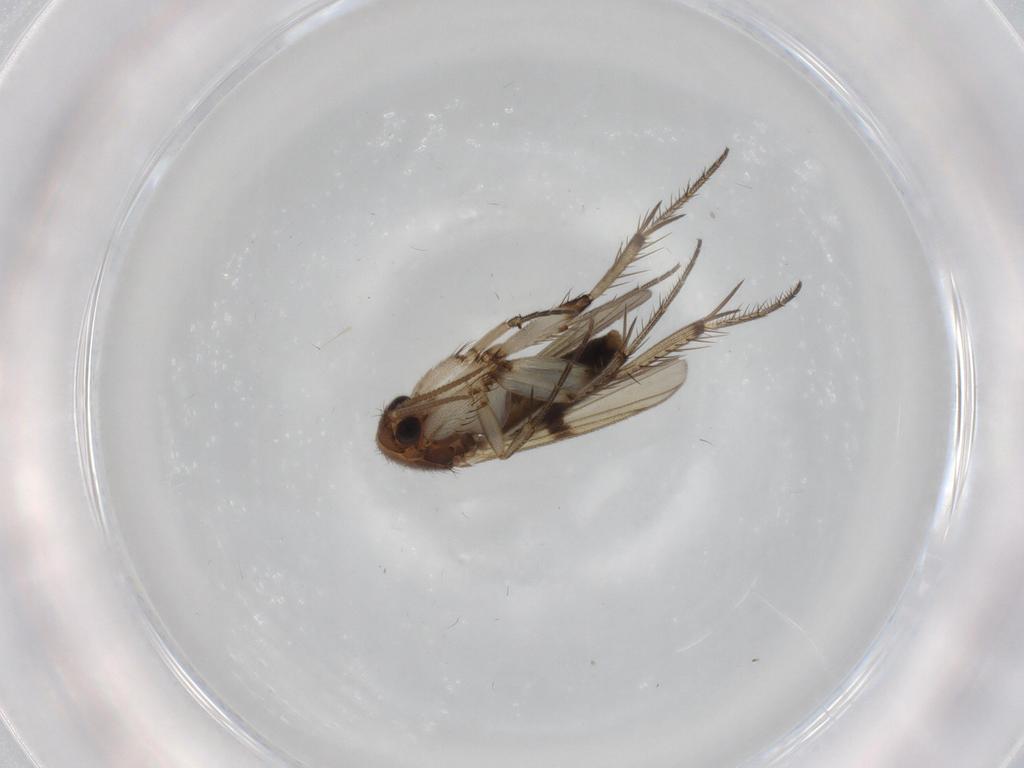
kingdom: Animalia
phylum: Arthropoda
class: Insecta
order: Diptera
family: Mycetophilidae
